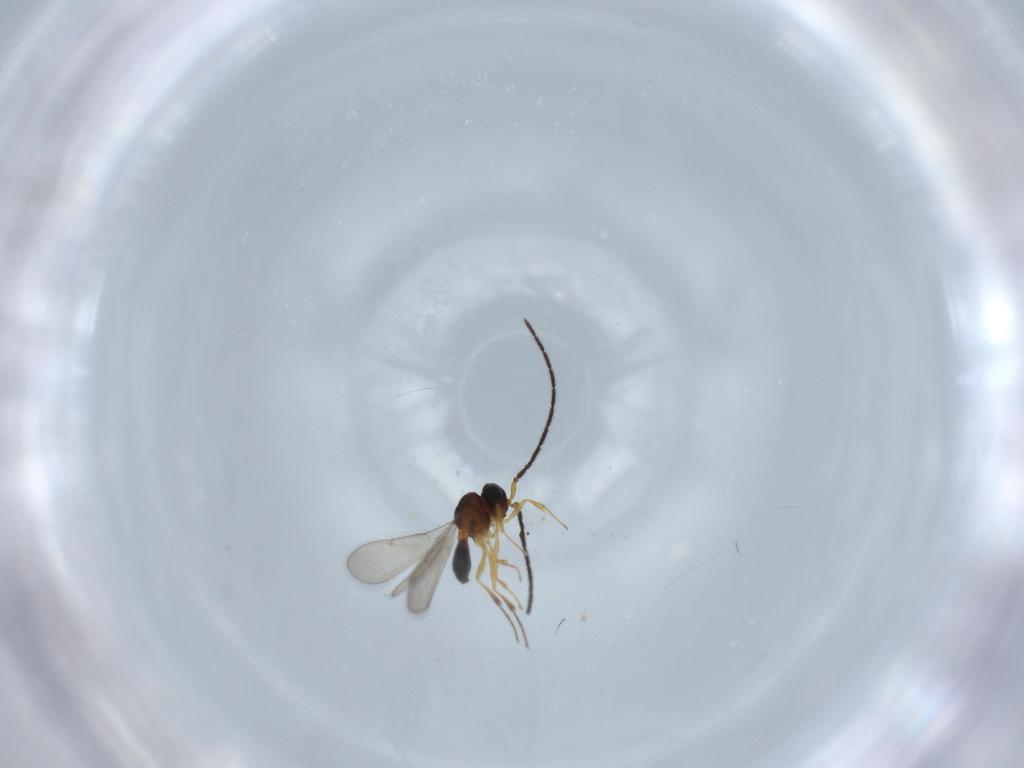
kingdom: Animalia
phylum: Arthropoda
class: Insecta
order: Hymenoptera
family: Scelionidae
